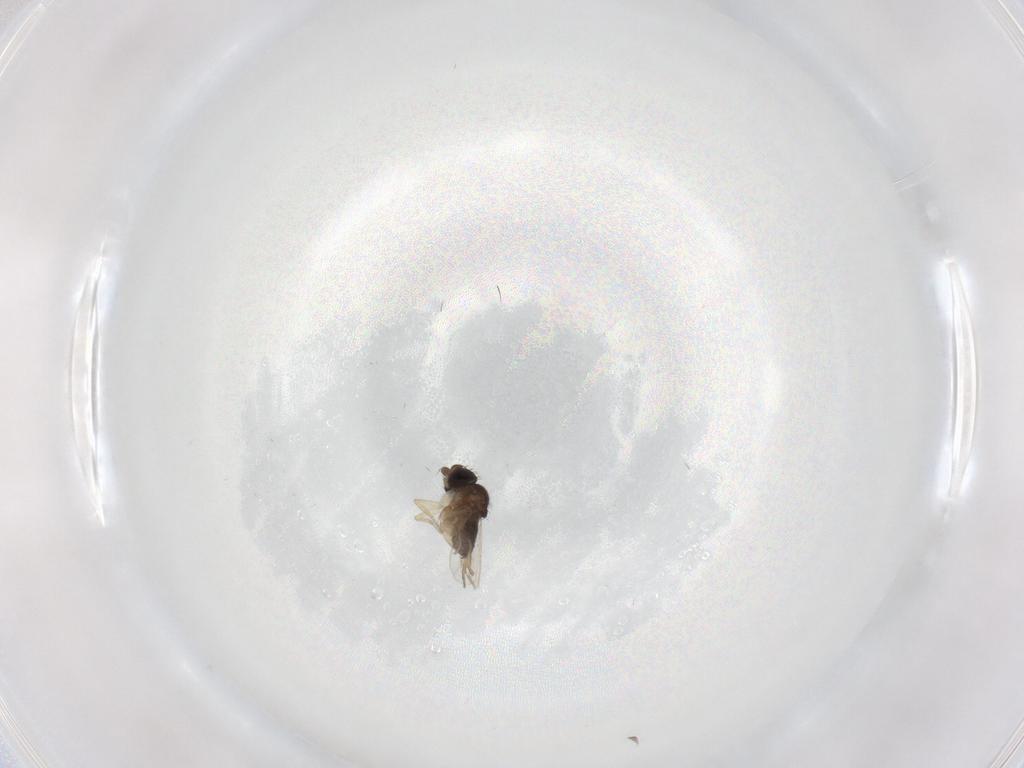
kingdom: Animalia
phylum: Arthropoda
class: Insecta
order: Diptera
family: Phoridae
